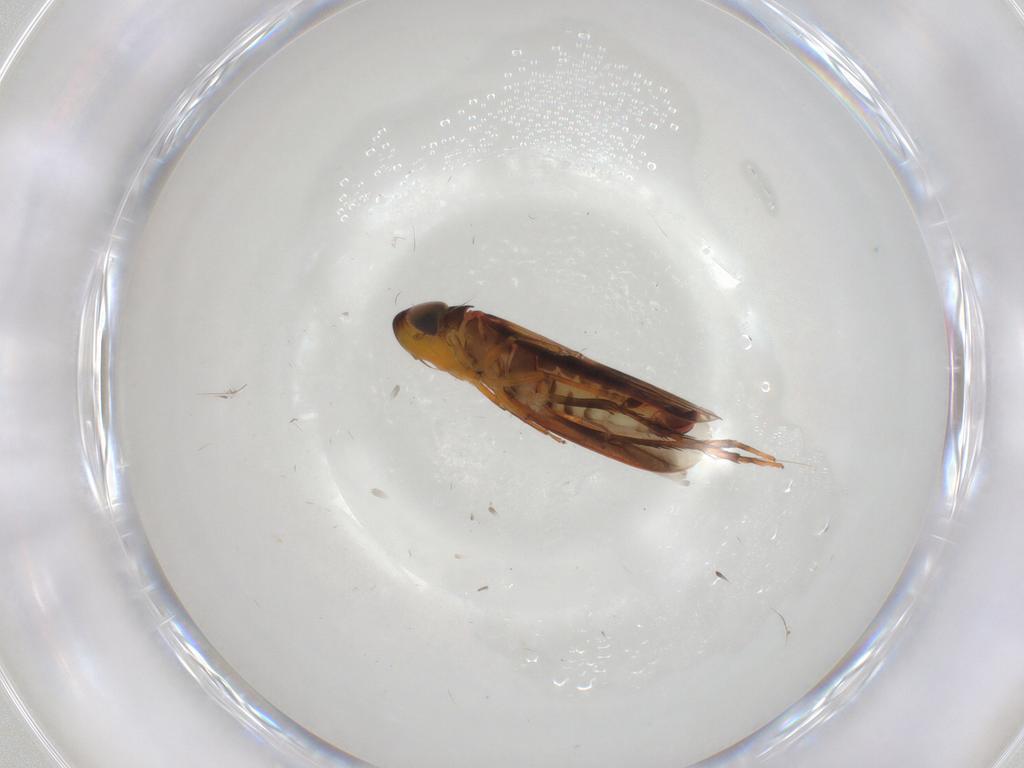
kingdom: Animalia
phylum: Arthropoda
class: Insecta
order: Hemiptera
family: Cicadellidae
